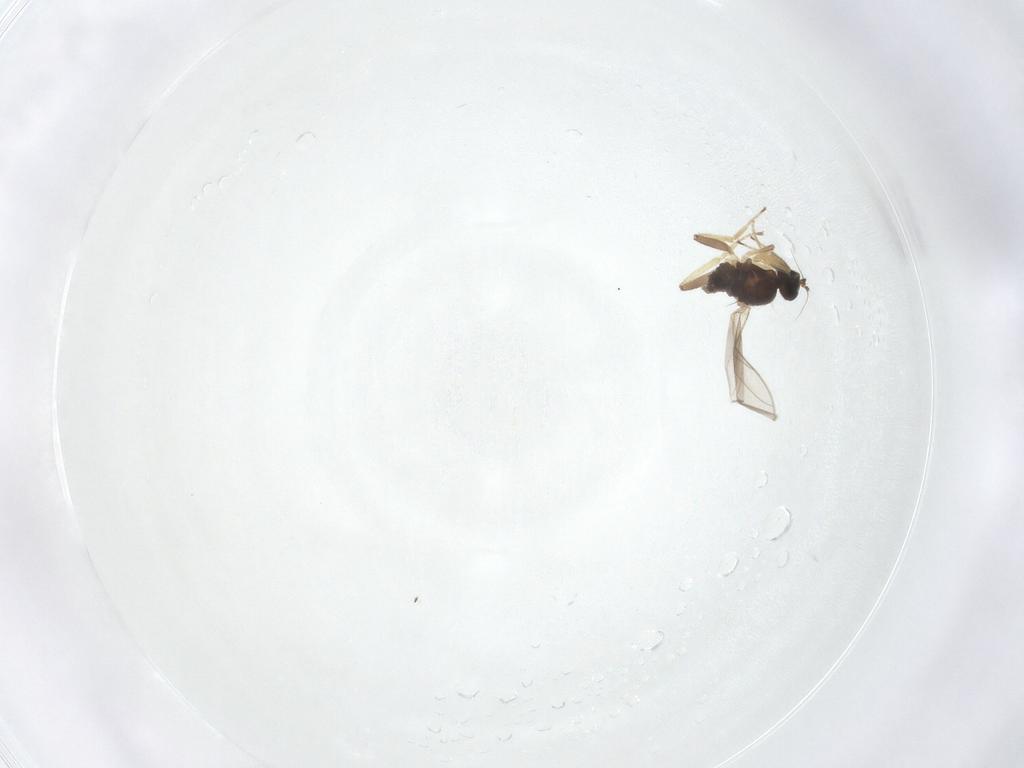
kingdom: Animalia
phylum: Arthropoda
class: Insecta
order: Diptera
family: Hybotidae
